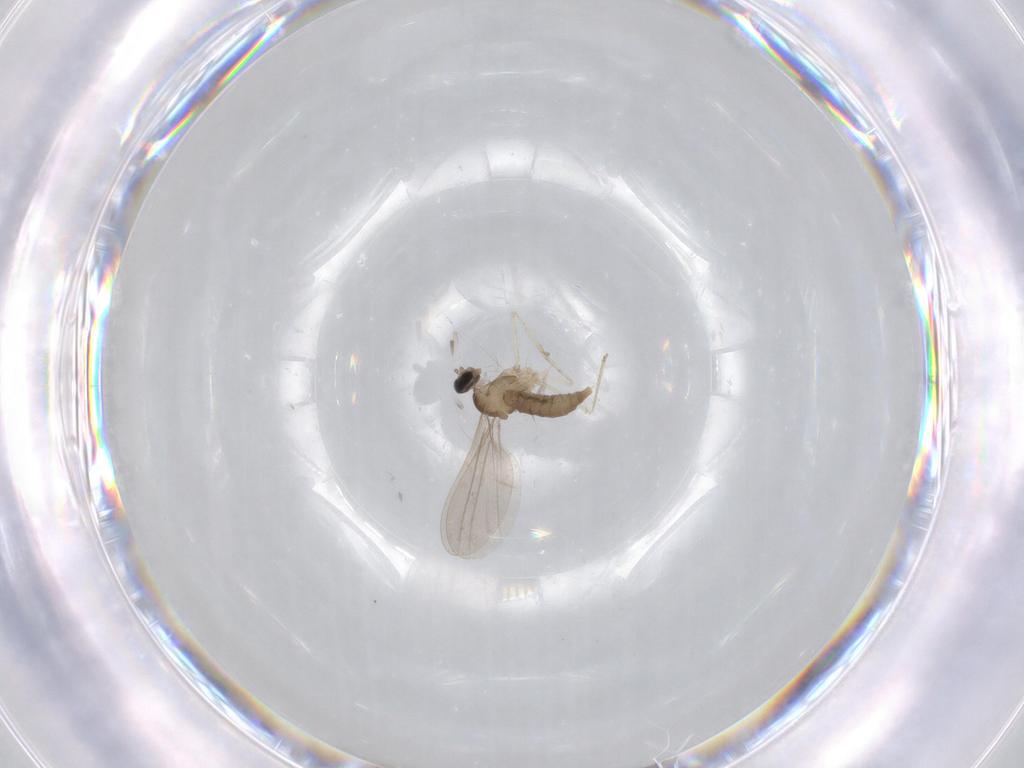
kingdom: Animalia
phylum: Arthropoda
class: Insecta
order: Diptera
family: Cecidomyiidae
